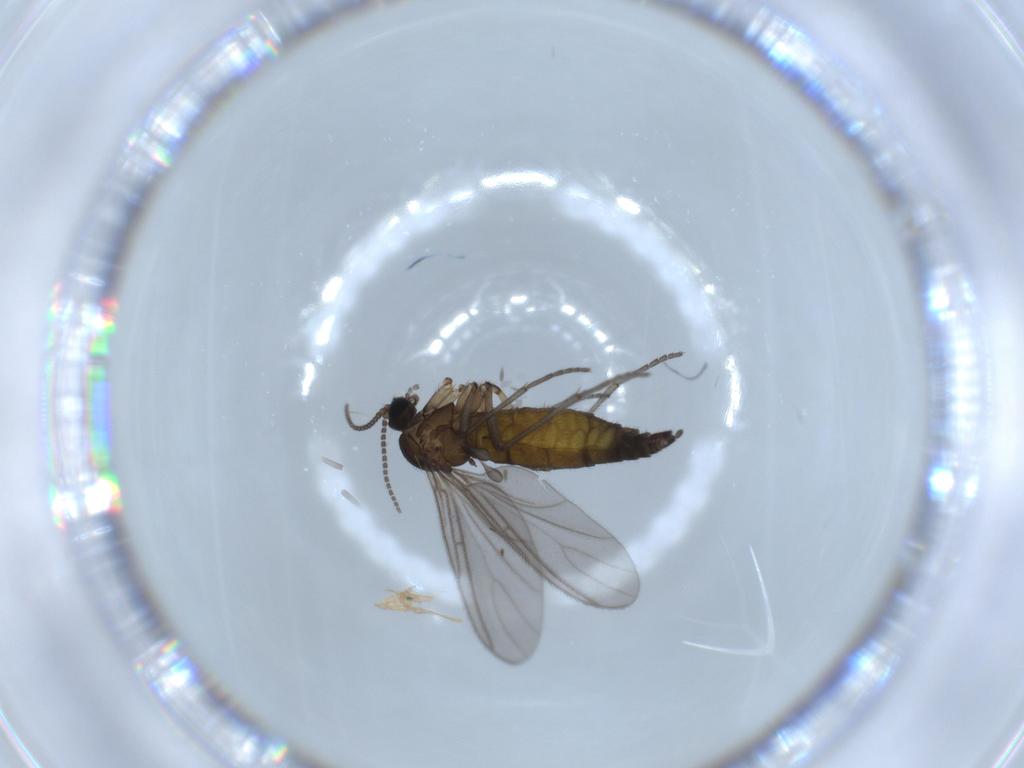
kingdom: Animalia
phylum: Arthropoda
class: Insecta
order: Diptera
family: Sciaridae
